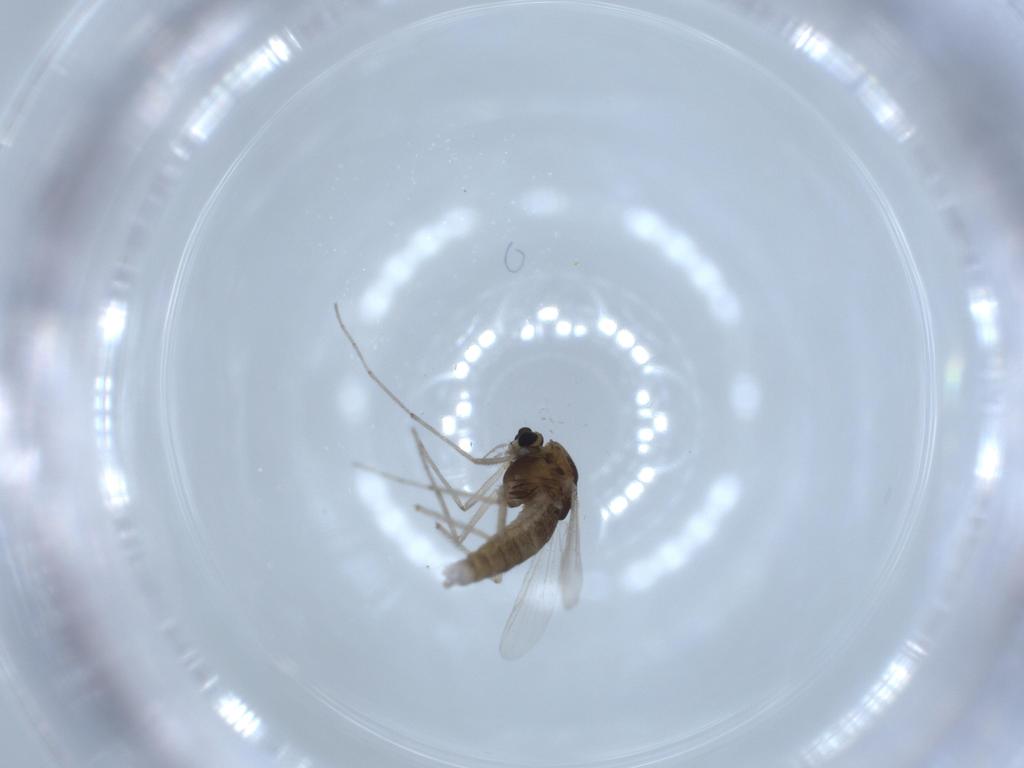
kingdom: Animalia
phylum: Arthropoda
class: Insecta
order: Diptera
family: Chironomidae
